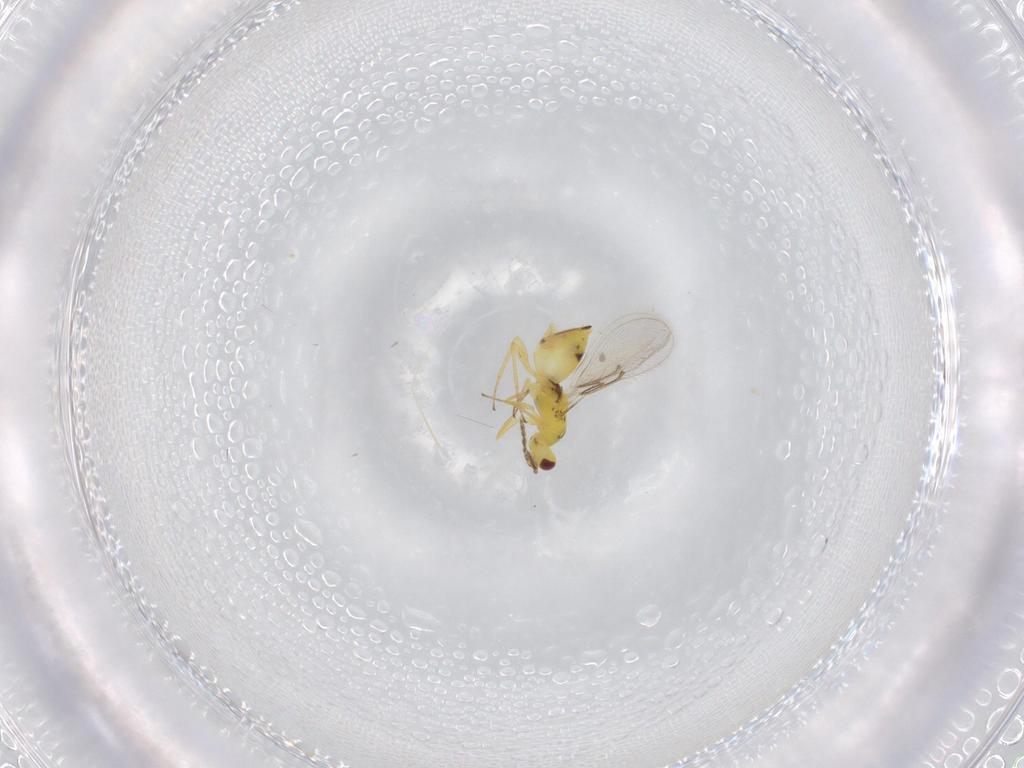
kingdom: Animalia
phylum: Arthropoda
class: Insecta
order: Hymenoptera
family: Eulophidae
